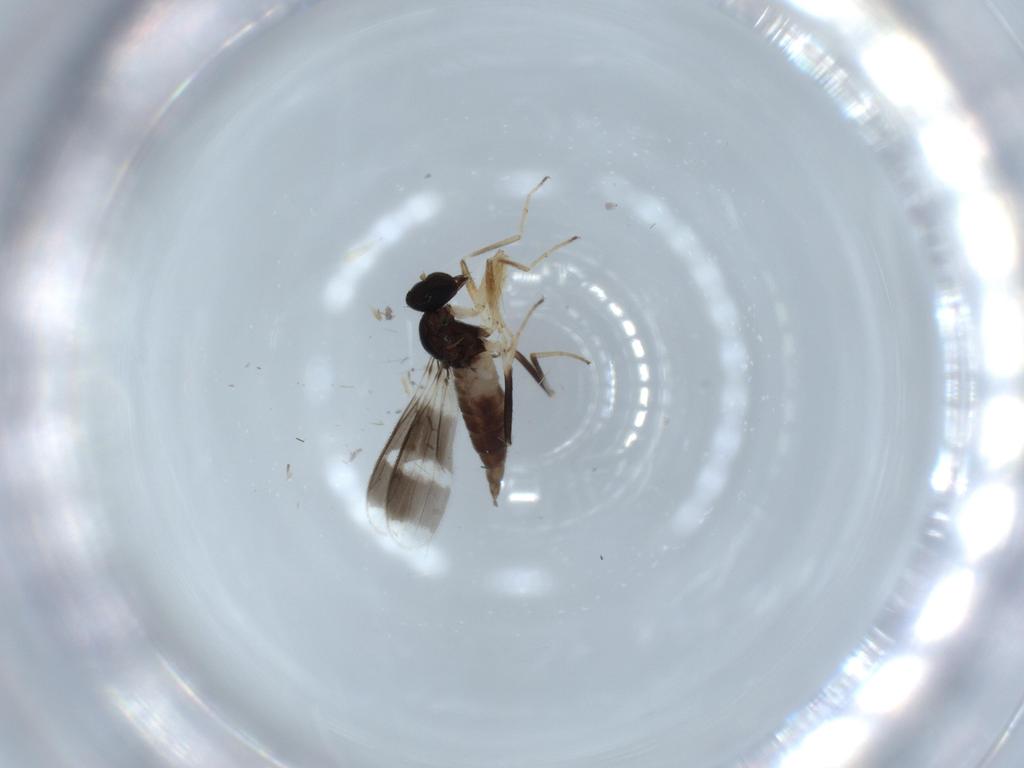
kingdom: Animalia
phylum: Arthropoda
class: Insecta
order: Diptera
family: Hybotidae
